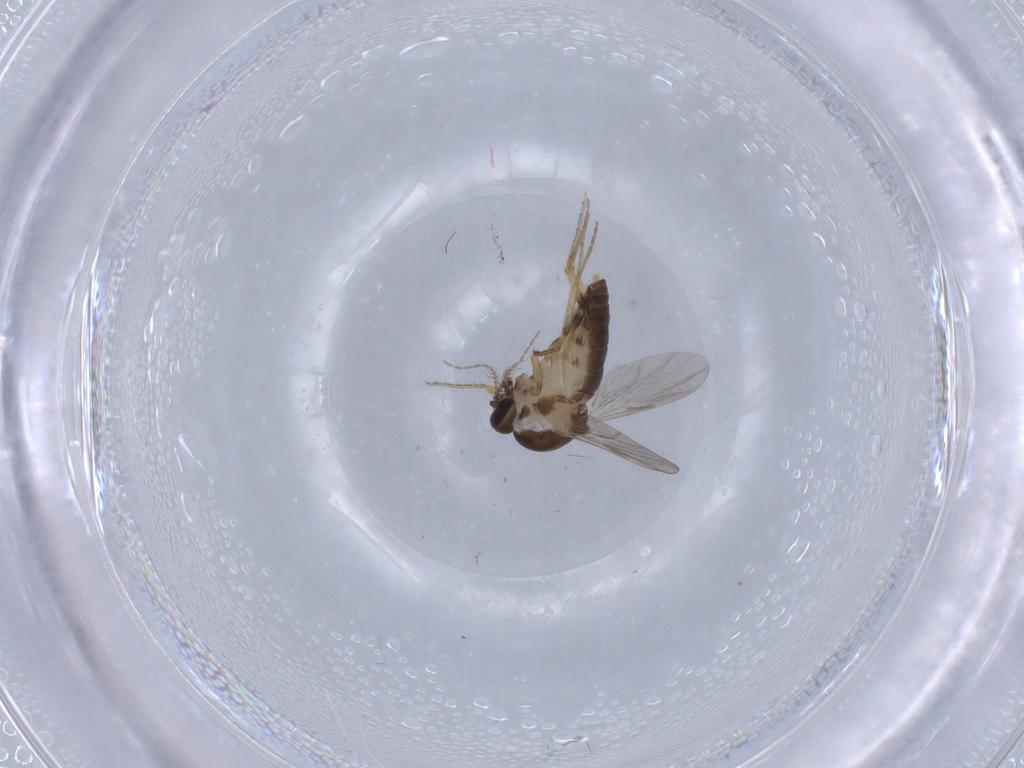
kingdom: Animalia
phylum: Arthropoda
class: Insecta
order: Diptera
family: Ceratopogonidae
